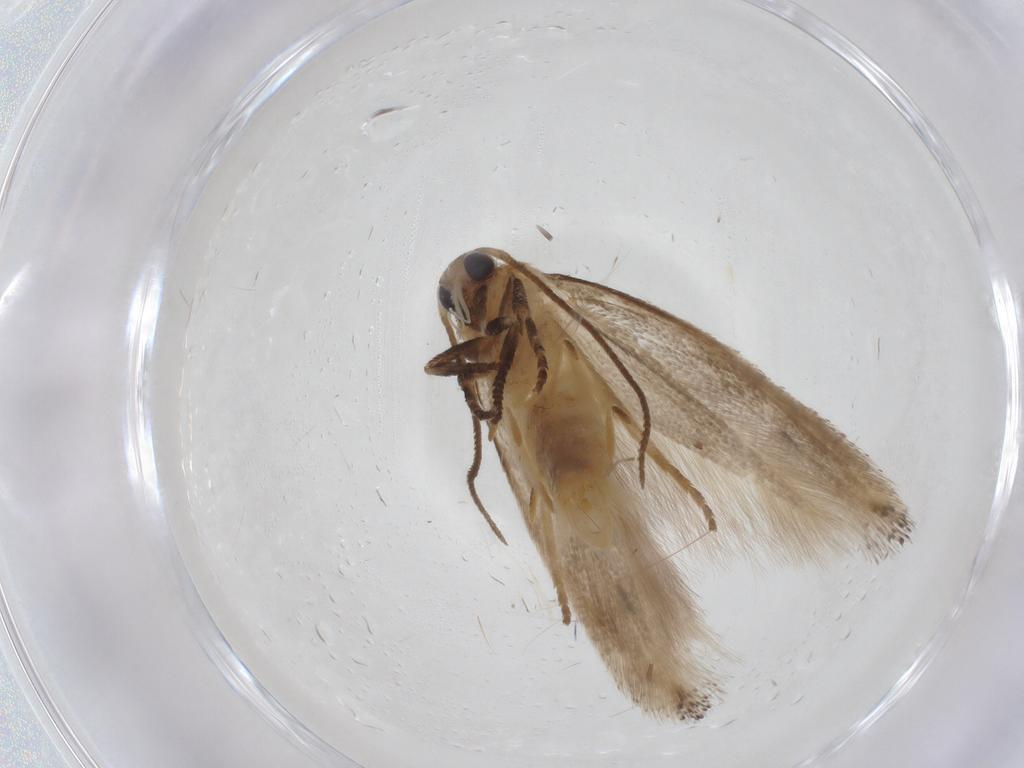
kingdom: Animalia
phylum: Arthropoda
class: Insecta
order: Lepidoptera
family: Elachistidae
